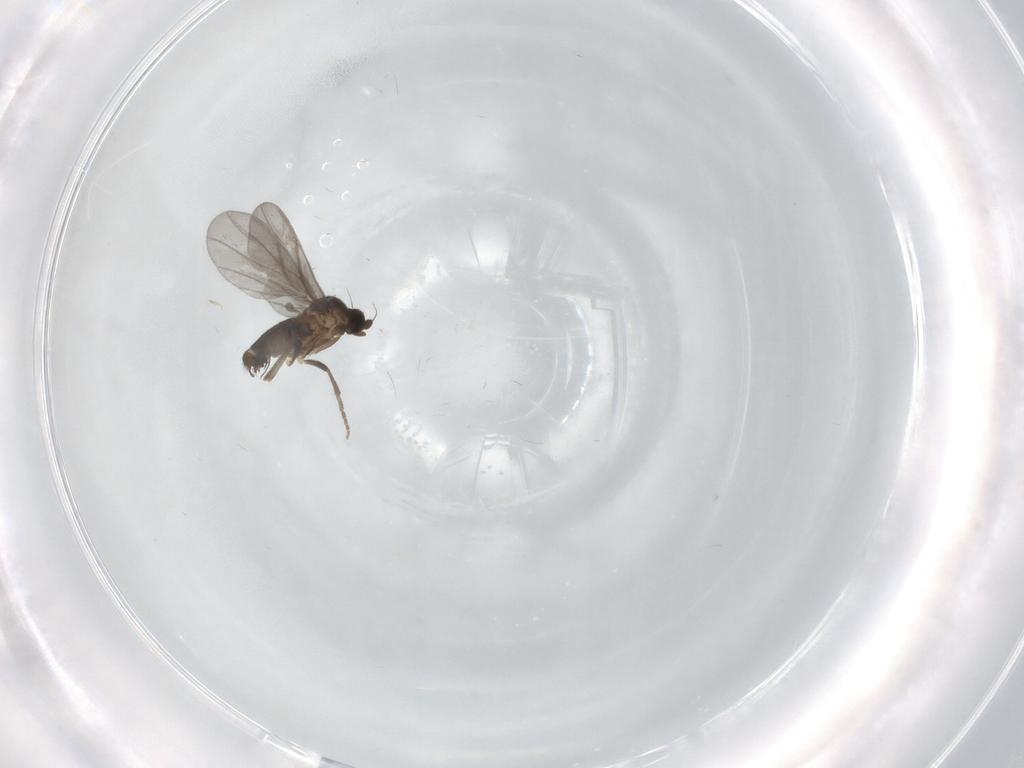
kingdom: Animalia
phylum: Arthropoda
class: Insecta
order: Diptera
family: Phoridae
